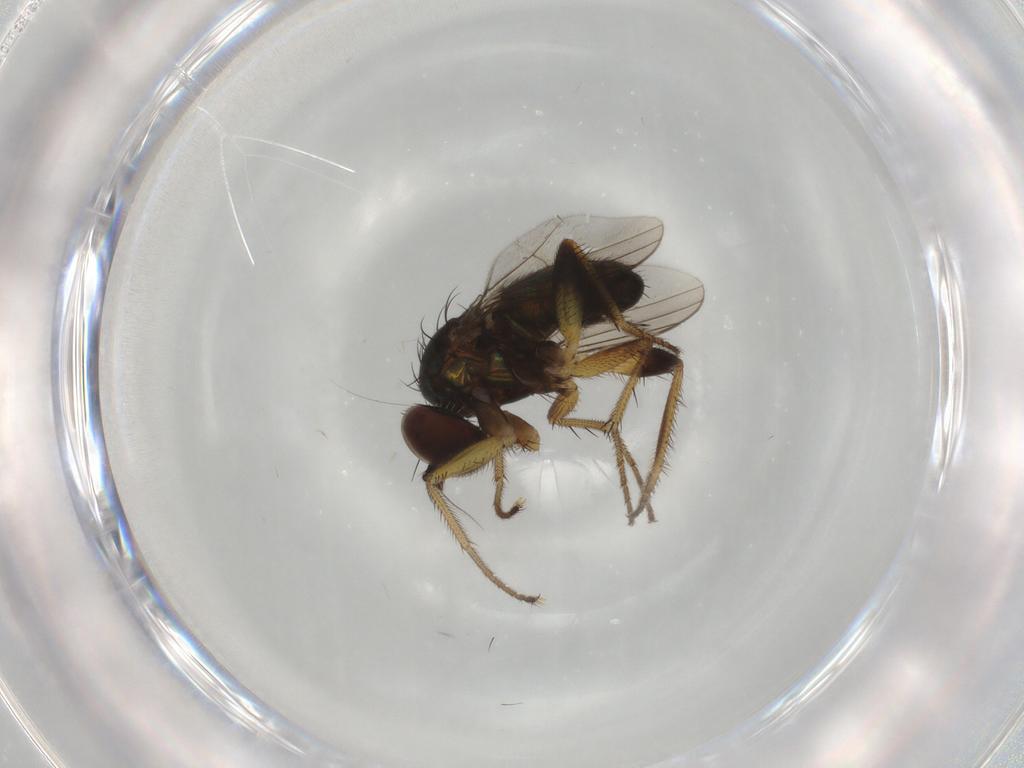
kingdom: Animalia
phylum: Arthropoda
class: Insecta
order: Diptera
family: Dolichopodidae
